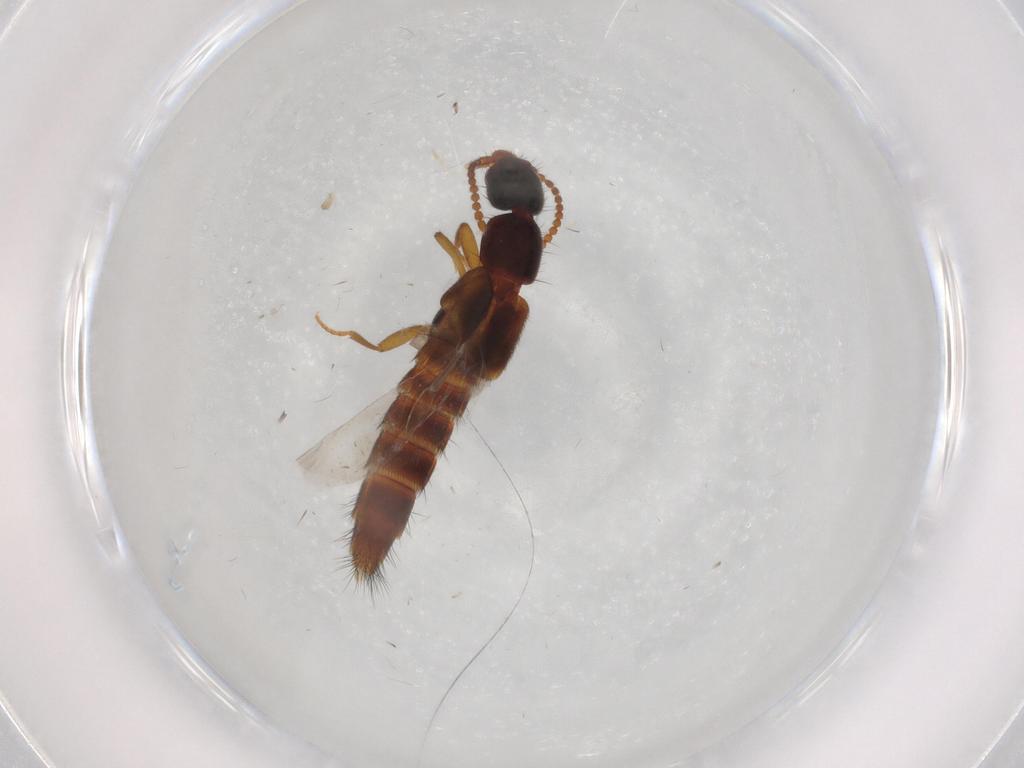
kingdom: Animalia
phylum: Arthropoda
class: Insecta
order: Coleoptera
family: Staphylinidae
